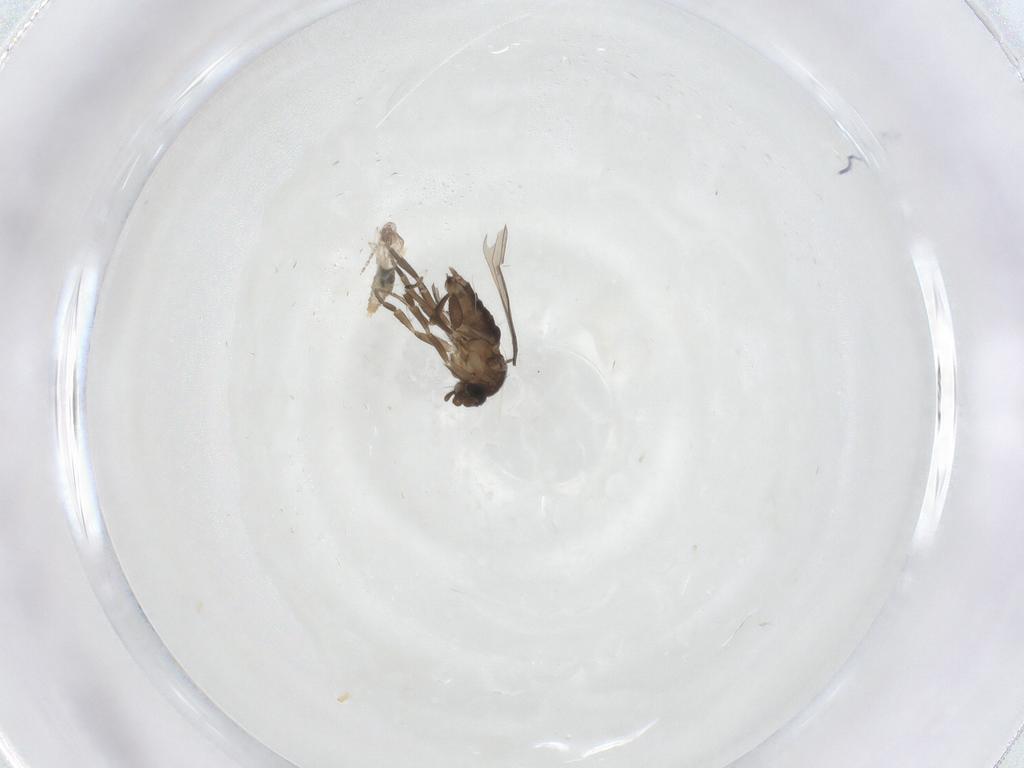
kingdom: Animalia
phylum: Arthropoda
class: Insecta
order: Diptera
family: Phoridae
